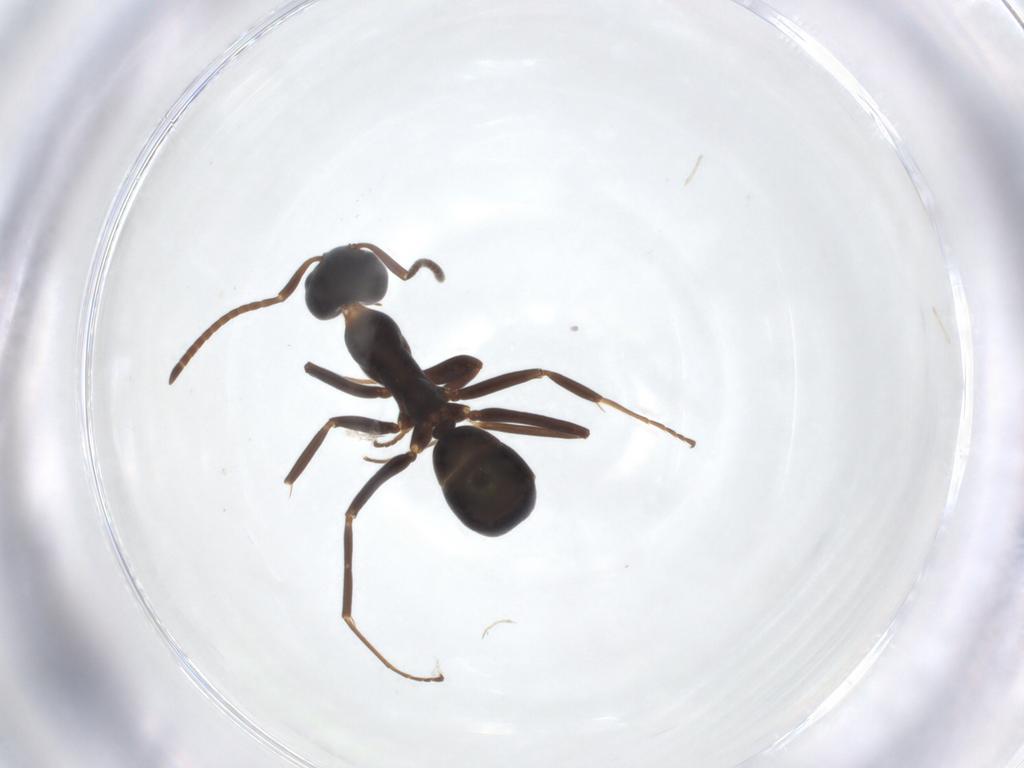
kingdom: Animalia
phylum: Arthropoda
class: Insecta
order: Hymenoptera
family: Formicidae
